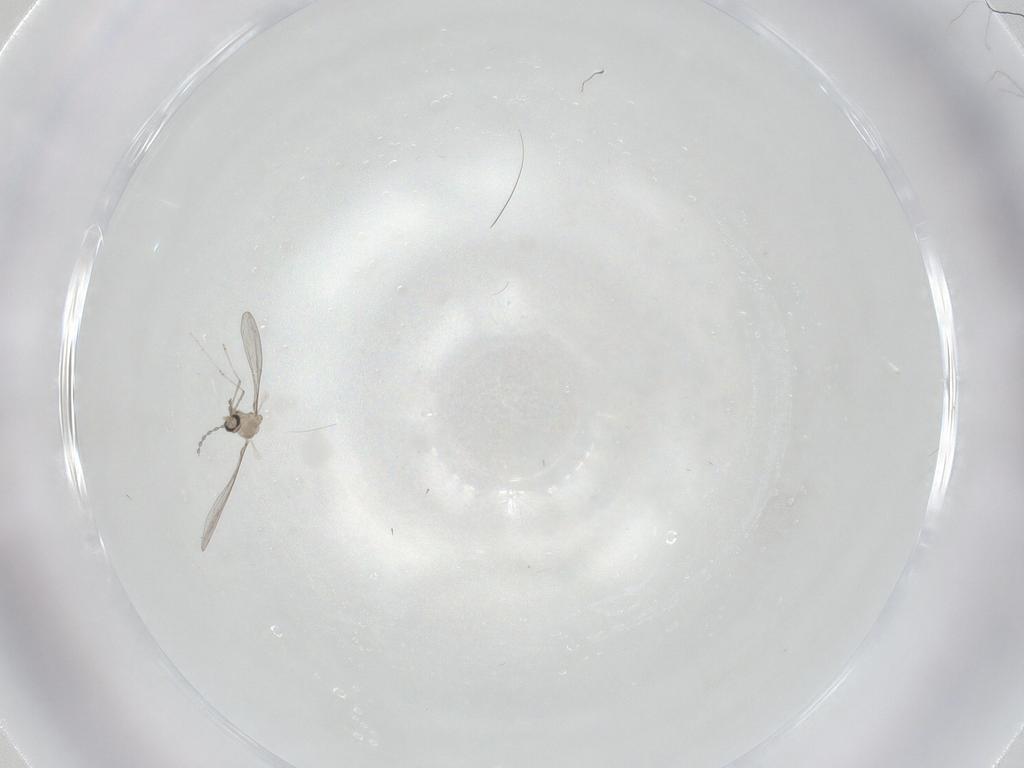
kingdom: Animalia
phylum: Arthropoda
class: Insecta
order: Diptera
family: Cecidomyiidae
